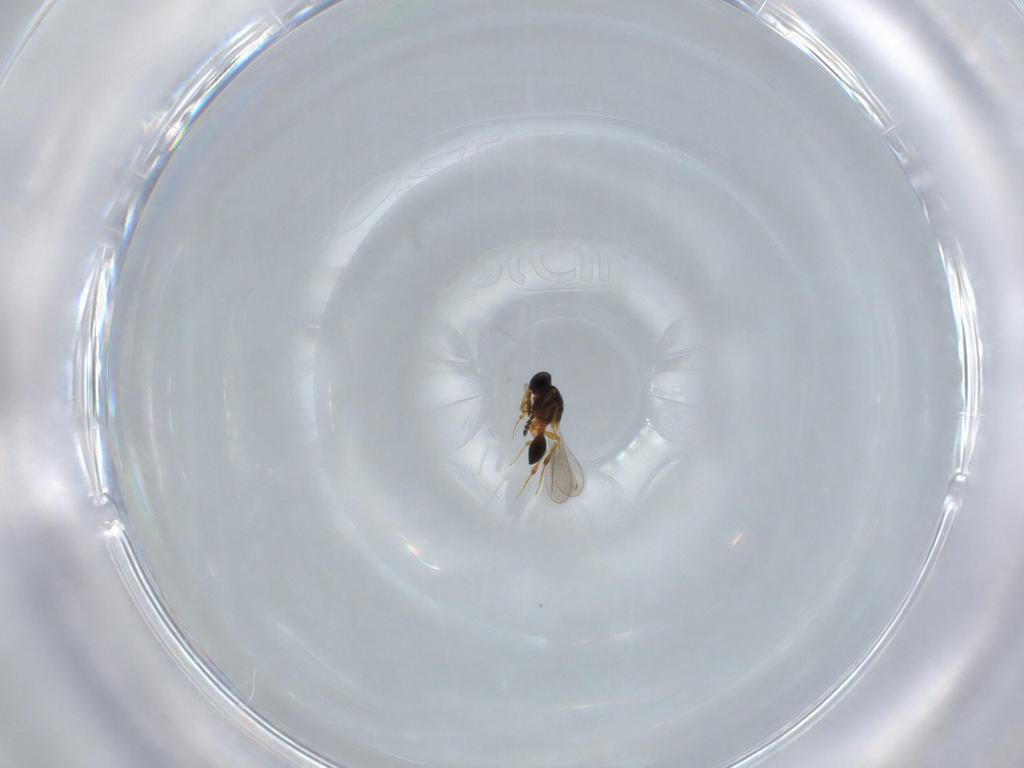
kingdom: Animalia
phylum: Arthropoda
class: Insecta
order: Hymenoptera
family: Platygastridae
